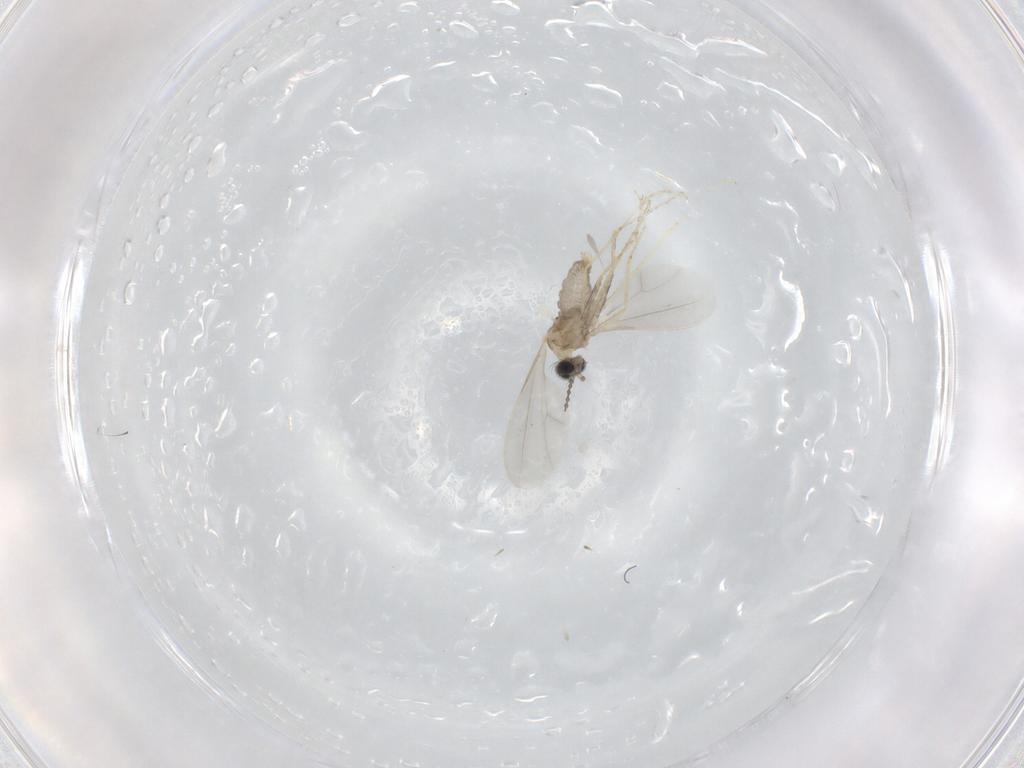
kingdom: Animalia
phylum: Arthropoda
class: Insecta
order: Diptera
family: Cecidomyiidae
